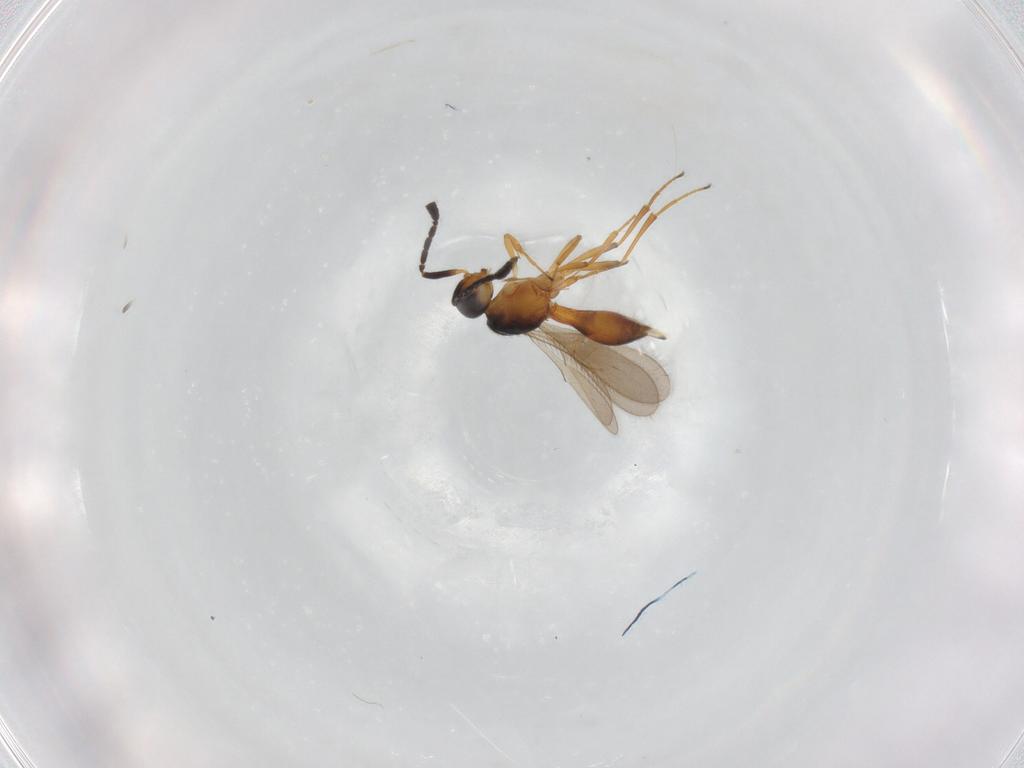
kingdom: Animalia
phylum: Arthropoda
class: Insecta
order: Hymenoptera
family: Scelionidae
